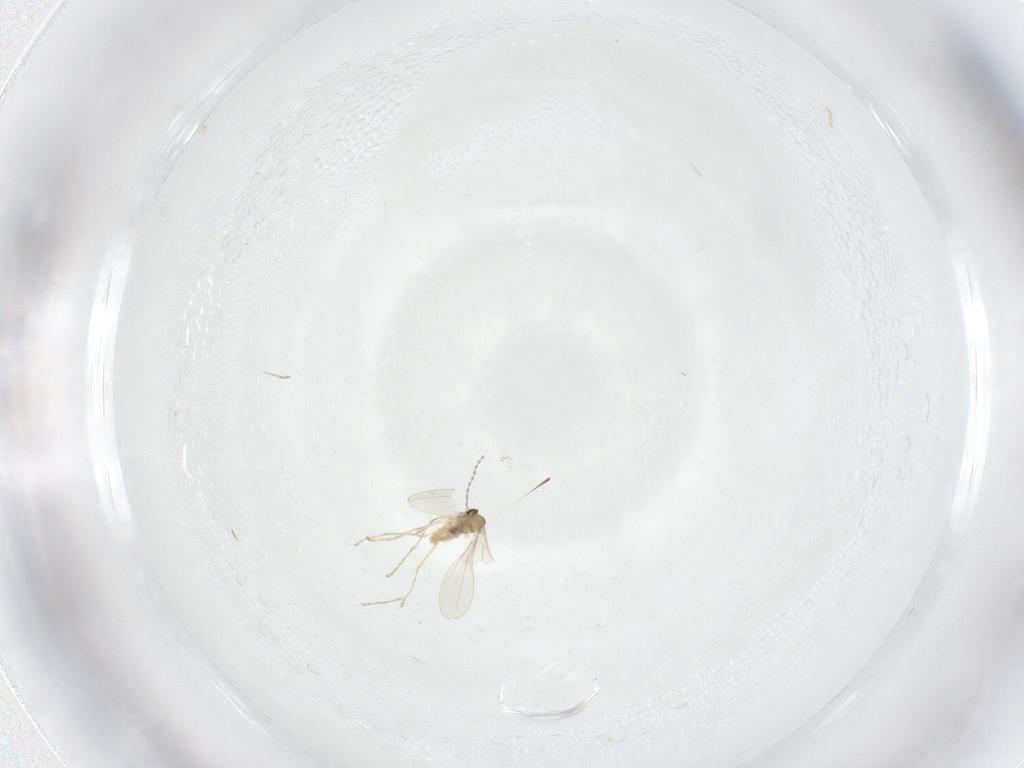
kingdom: Animalia
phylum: Arthropoda
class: Insecta
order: Diptera
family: Cecidomyiidae
